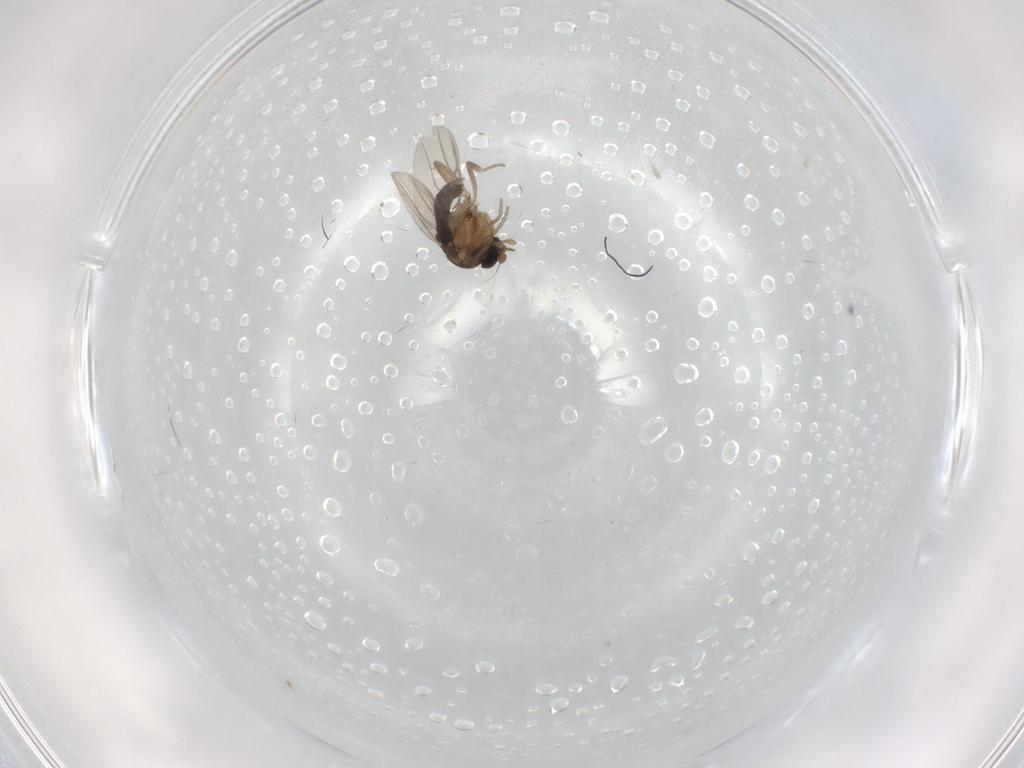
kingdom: Animalia
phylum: Arthropoda
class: Insecta
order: Diptera
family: Phoridae
